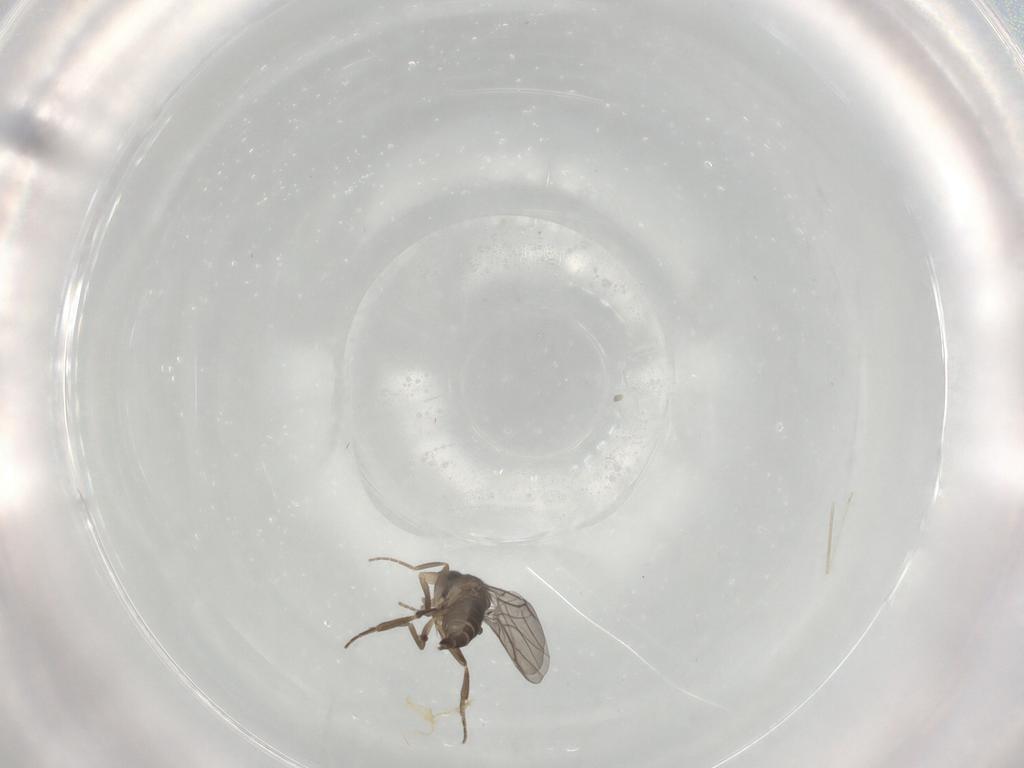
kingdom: Animalia
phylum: Arthropoda
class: Insecta
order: Diptera
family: Cecidomyiidae
